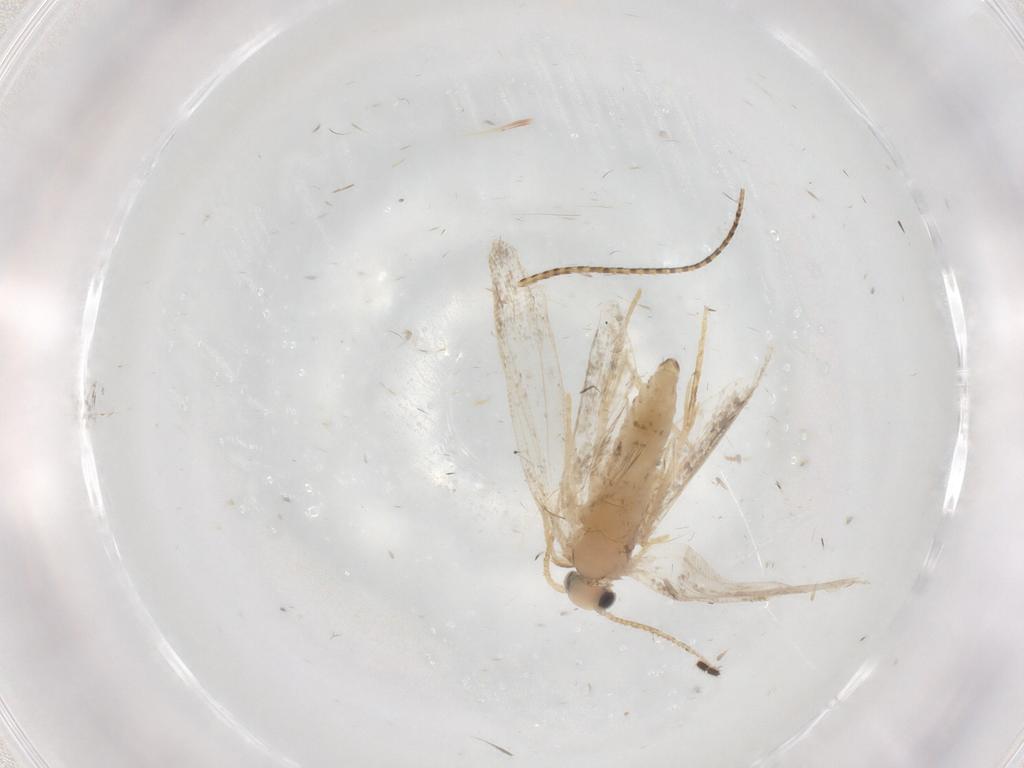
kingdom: Animalia
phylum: Arthropoda
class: Insecta
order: Lepidoptera
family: Psychidae
